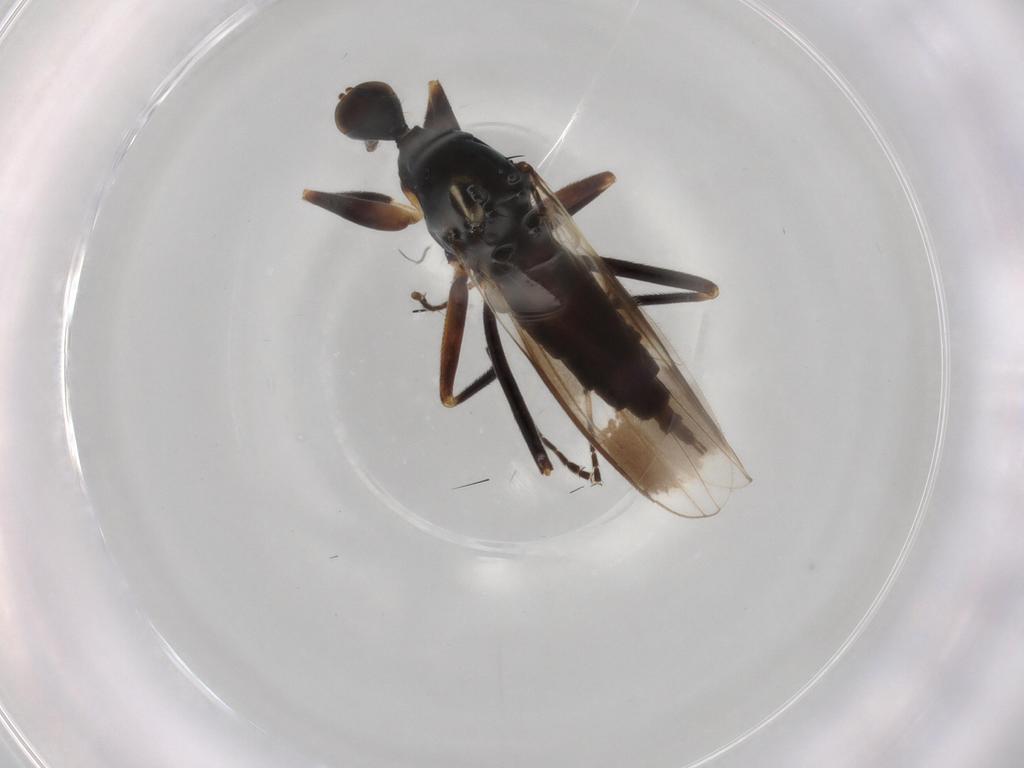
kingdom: Animalia
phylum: Arthropoda
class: Insecta
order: Diptera
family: Hybotidae
